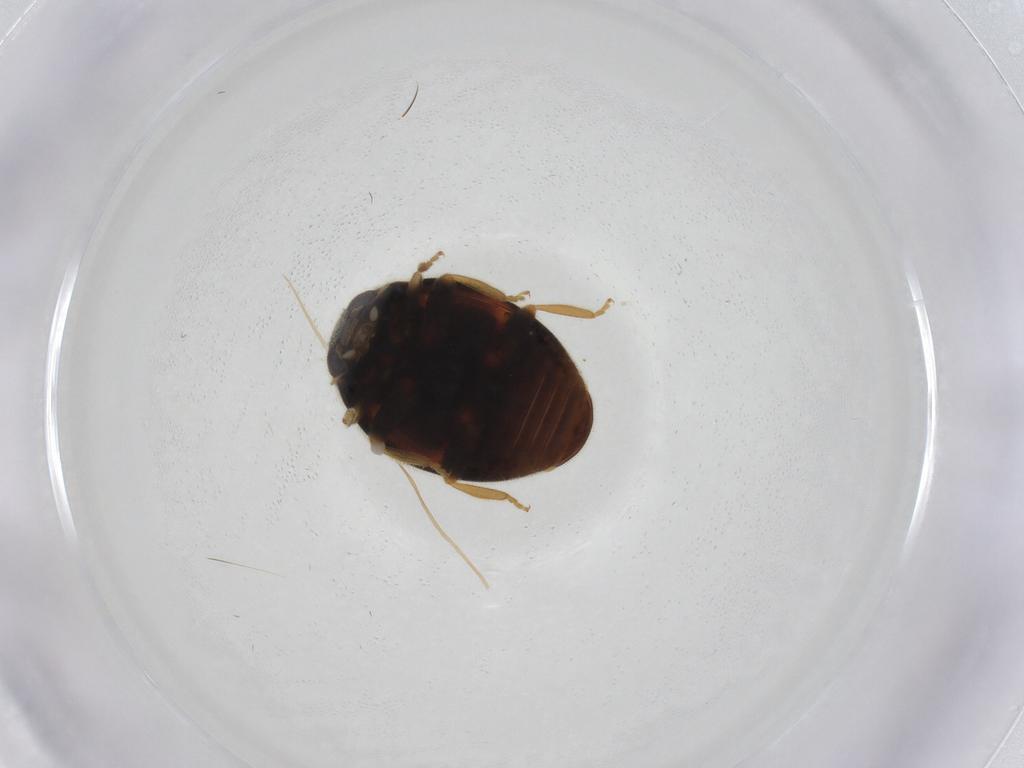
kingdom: Animalia
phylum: Arthropoda
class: Insecta
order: Coleoptera
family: Coccinellidae
